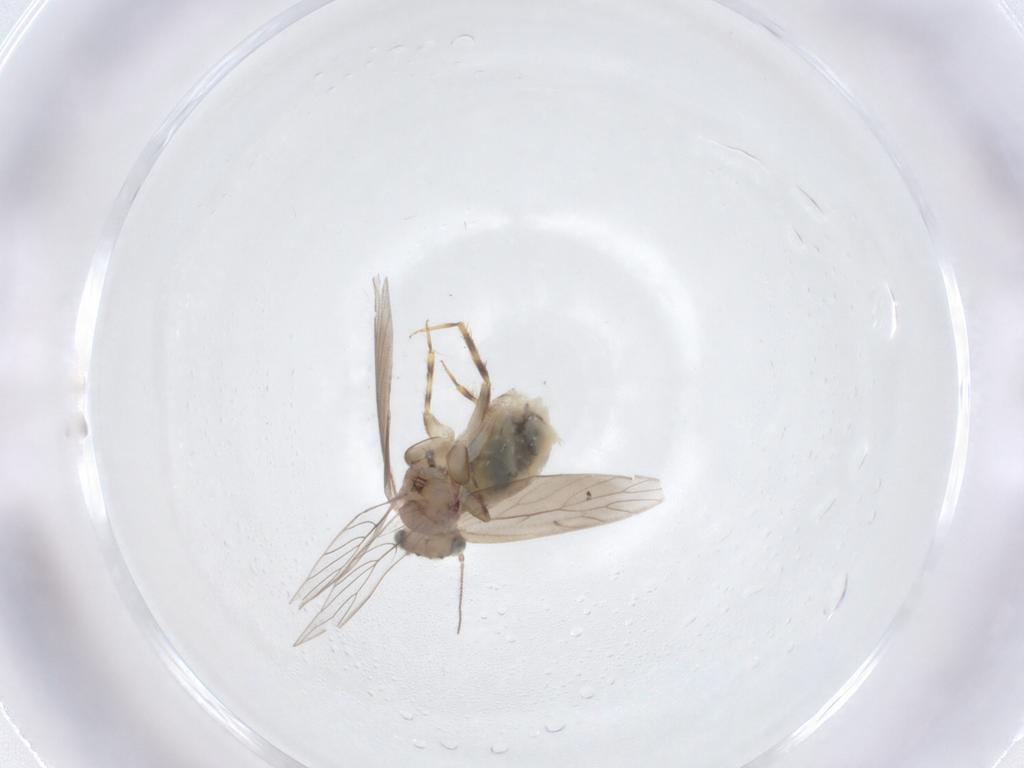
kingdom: Animalia
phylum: Arthropoda
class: Insecta
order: Psocodea
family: Lepidopsocidae
